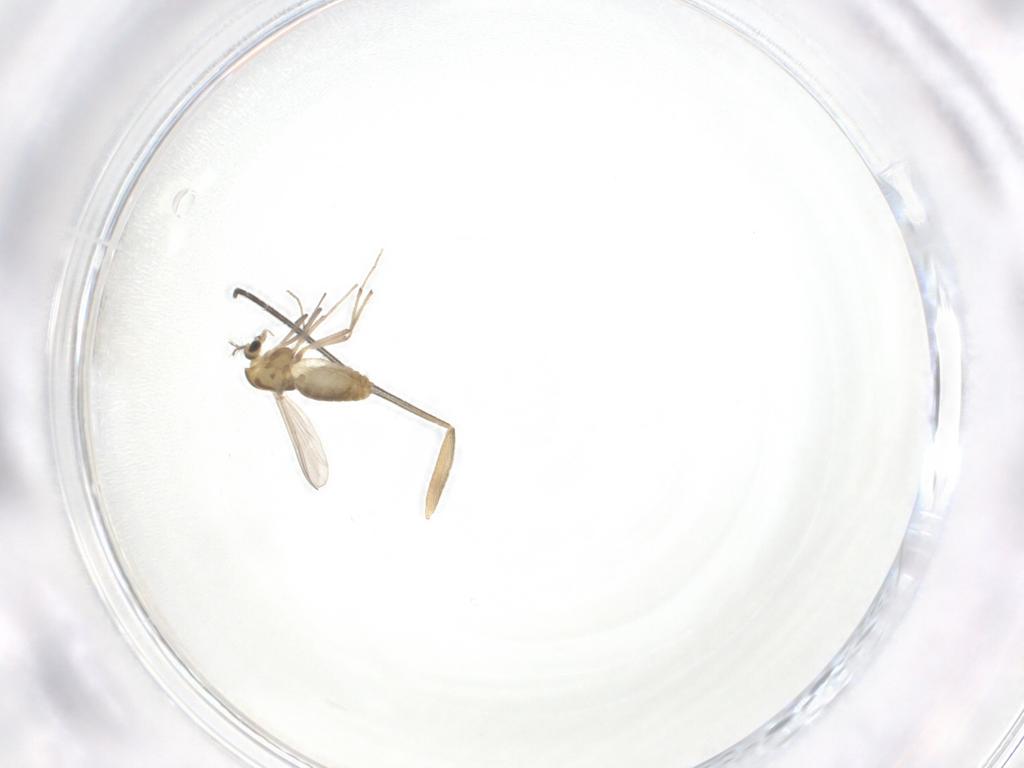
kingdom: Animalia
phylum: Arthropoda
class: Insecta
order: Diptera
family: Chironomidae
